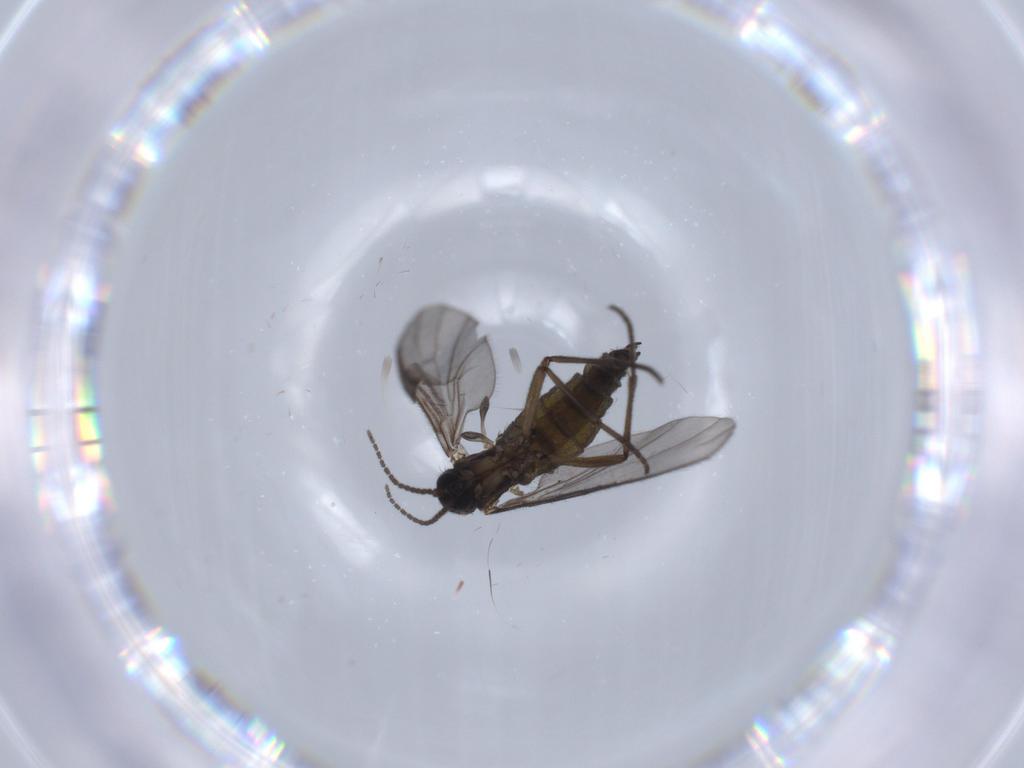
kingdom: Animalia
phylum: Arthropoda
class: Insecta
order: Diptera
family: Sciaridae
